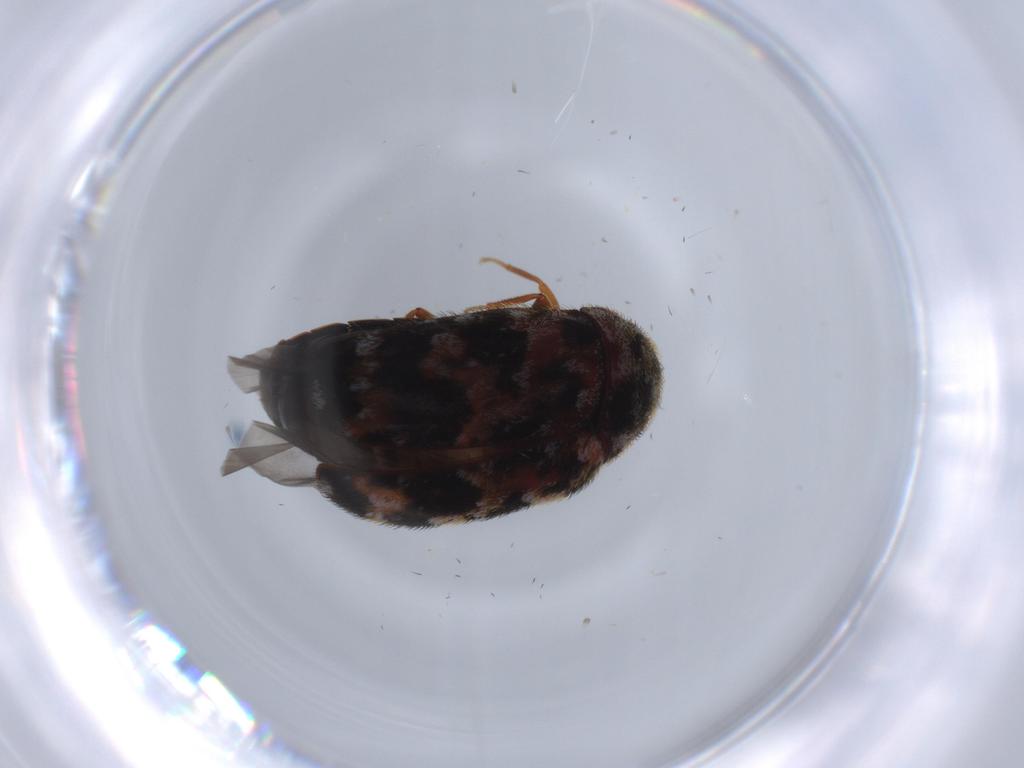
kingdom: Animalia
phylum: Arthropoda
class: Insecta
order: Coleoptera
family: Dermestidae
